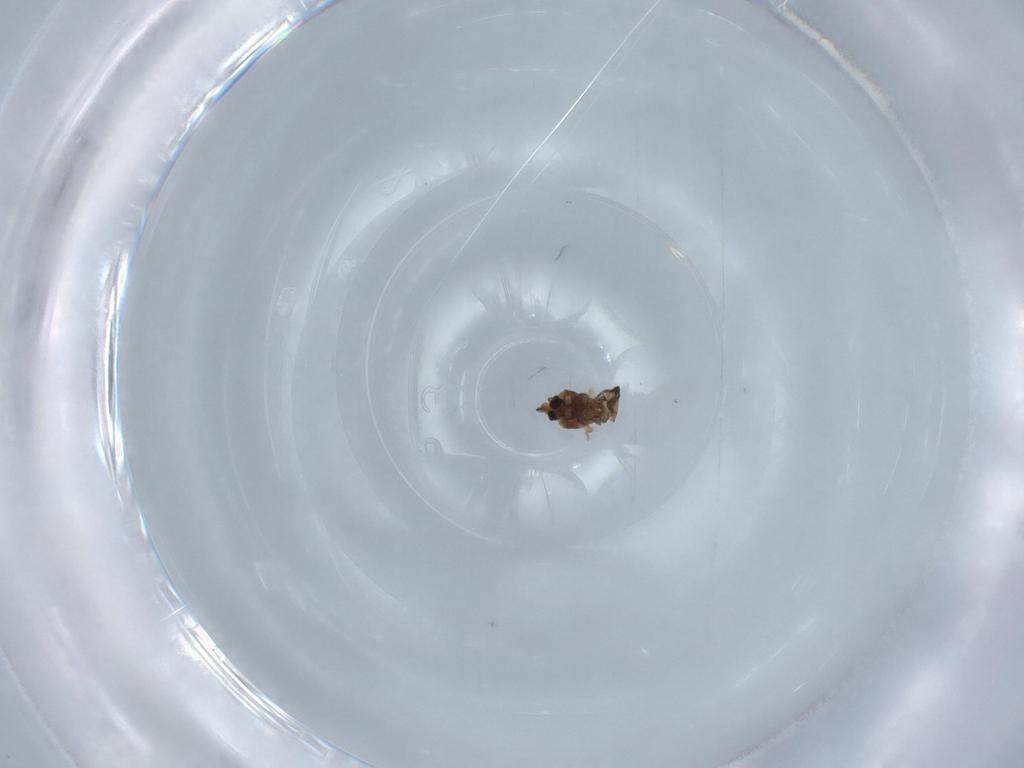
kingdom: Animalia
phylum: Arthropoda
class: Insecta
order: Diptera
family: Ceratopogonidae
